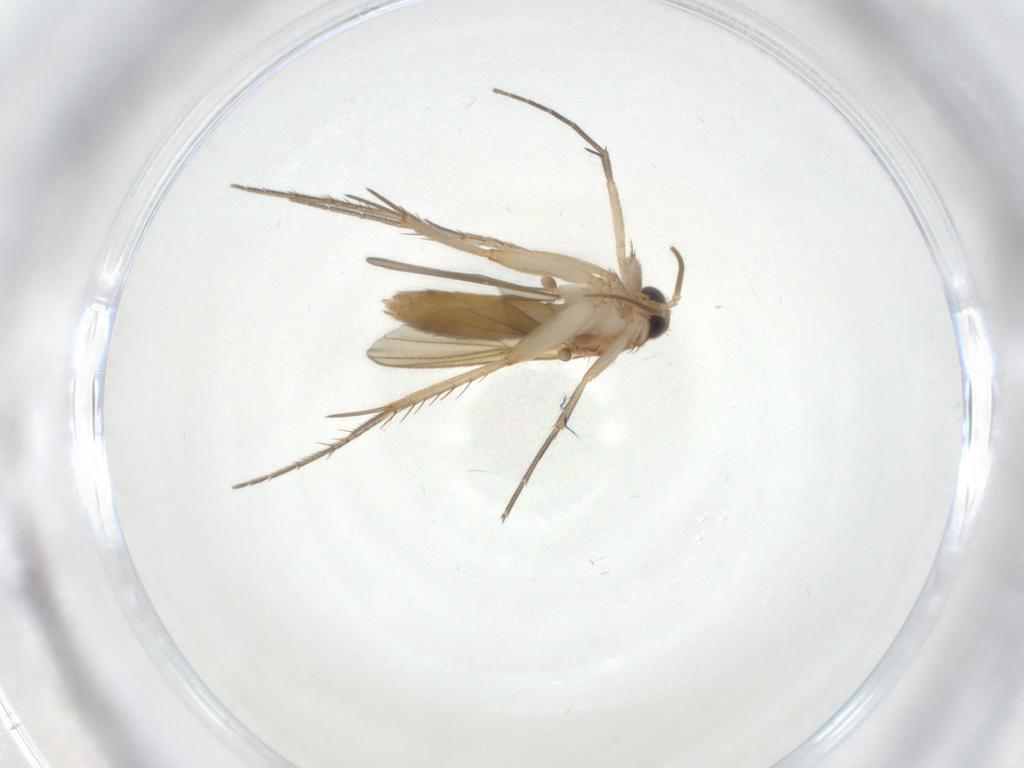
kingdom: Animalia
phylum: Arthropoda
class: Insecta
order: Diptera
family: Mycetophilidae
